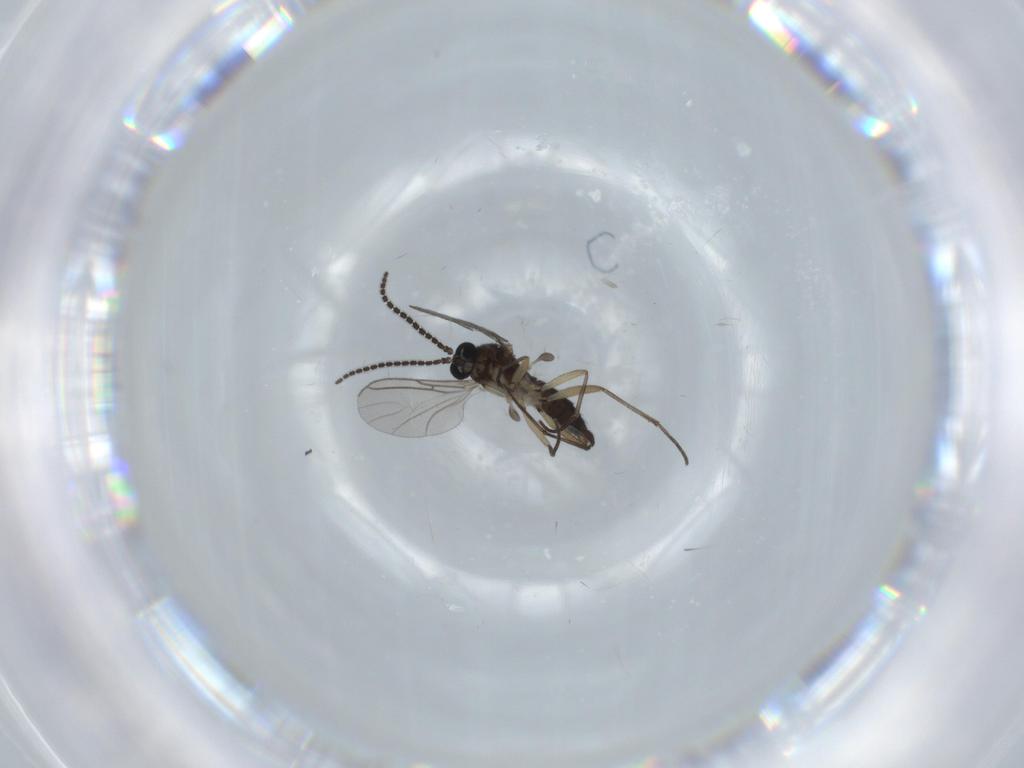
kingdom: Animalia
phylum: Arthropoda
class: Insecta
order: Diptera
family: Sciaridae
